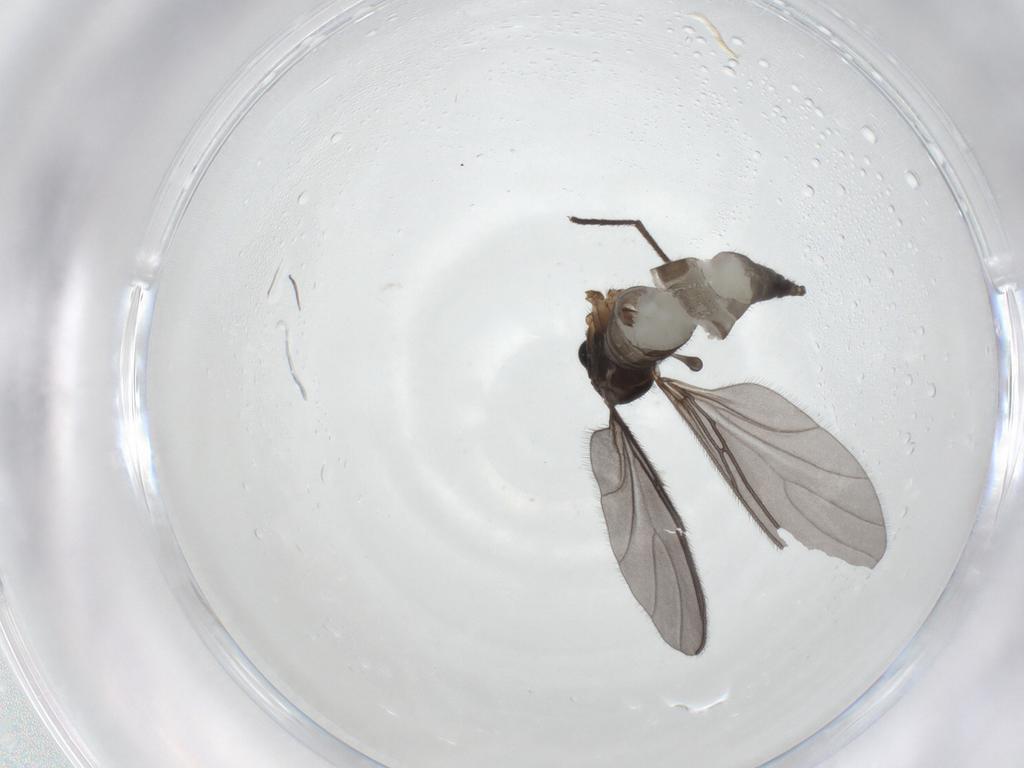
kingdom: Animalia
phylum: Arthropoda
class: Insecta
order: Diptera
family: Sciaridae
